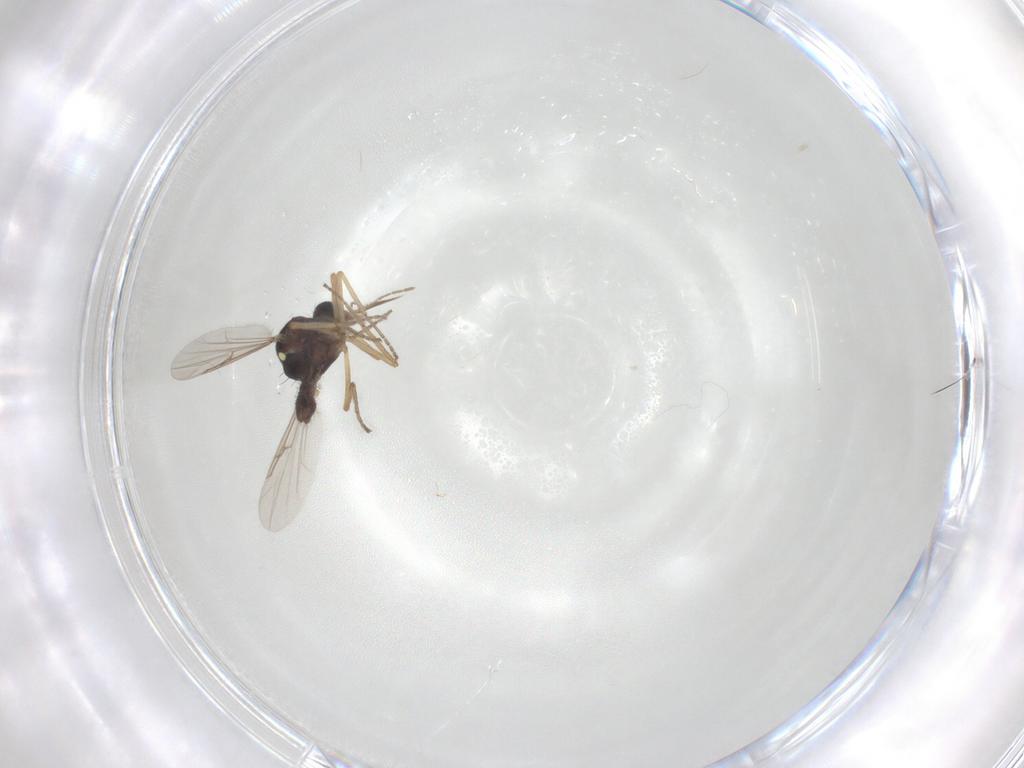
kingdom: Animalia
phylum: Arthropoda
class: Insecta
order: Diptera
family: Ceratopogonidae
